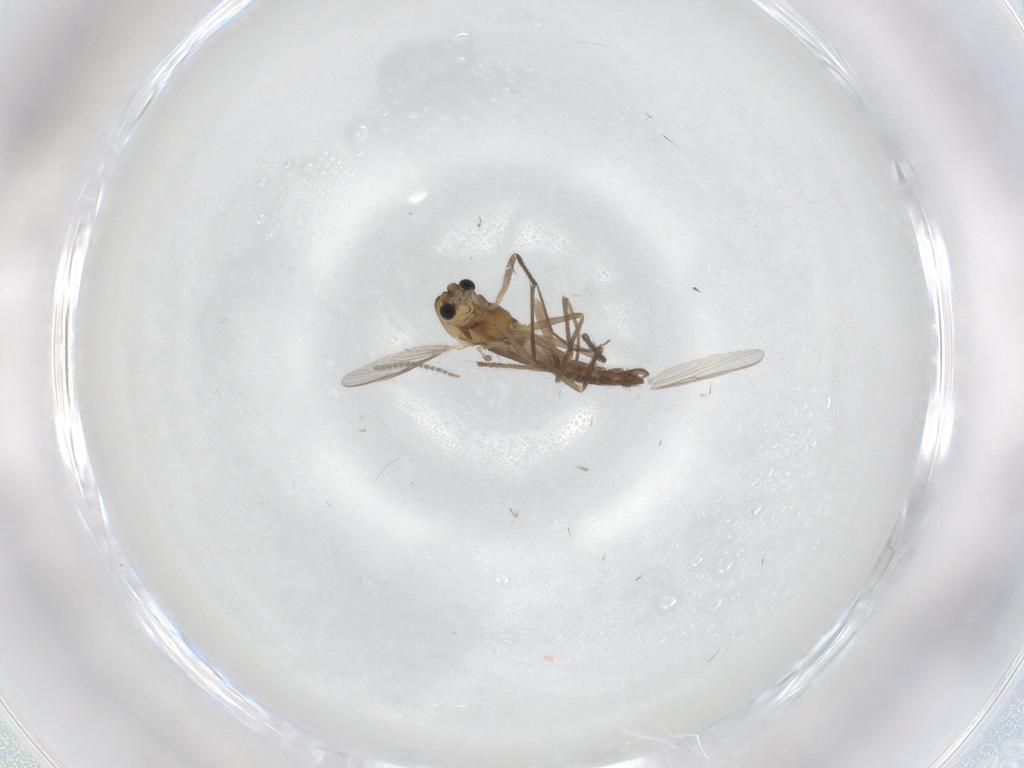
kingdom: Animalia
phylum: Arthropoda
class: Insecta
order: Diptera
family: Chironomidae
